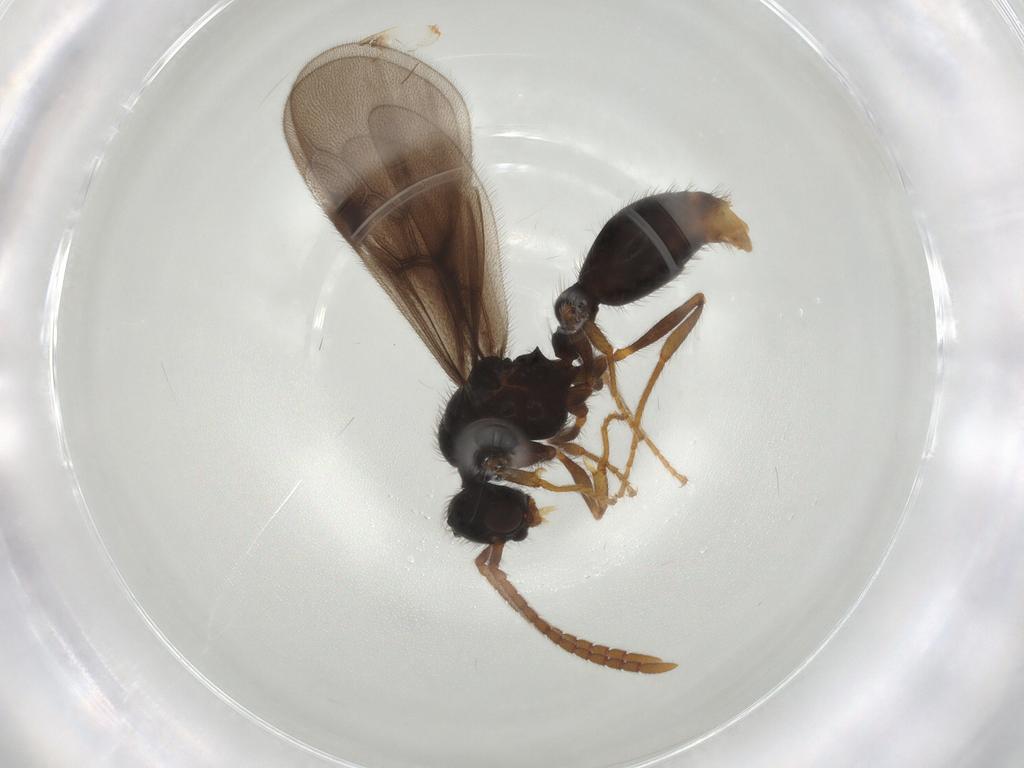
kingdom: Animalia
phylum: Arthropoda
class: Insecta
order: Hymenoptera
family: Formicidae
